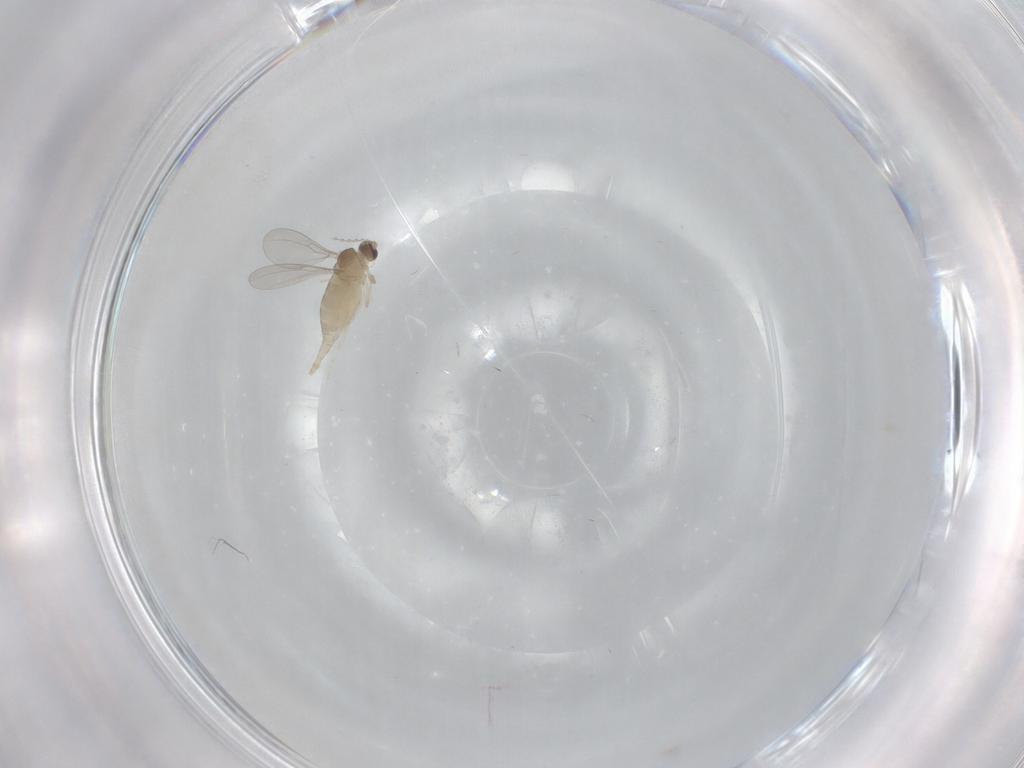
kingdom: Animalia
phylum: Arthropoda
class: Insecta
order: Diptera
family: Cecidomyiidae
